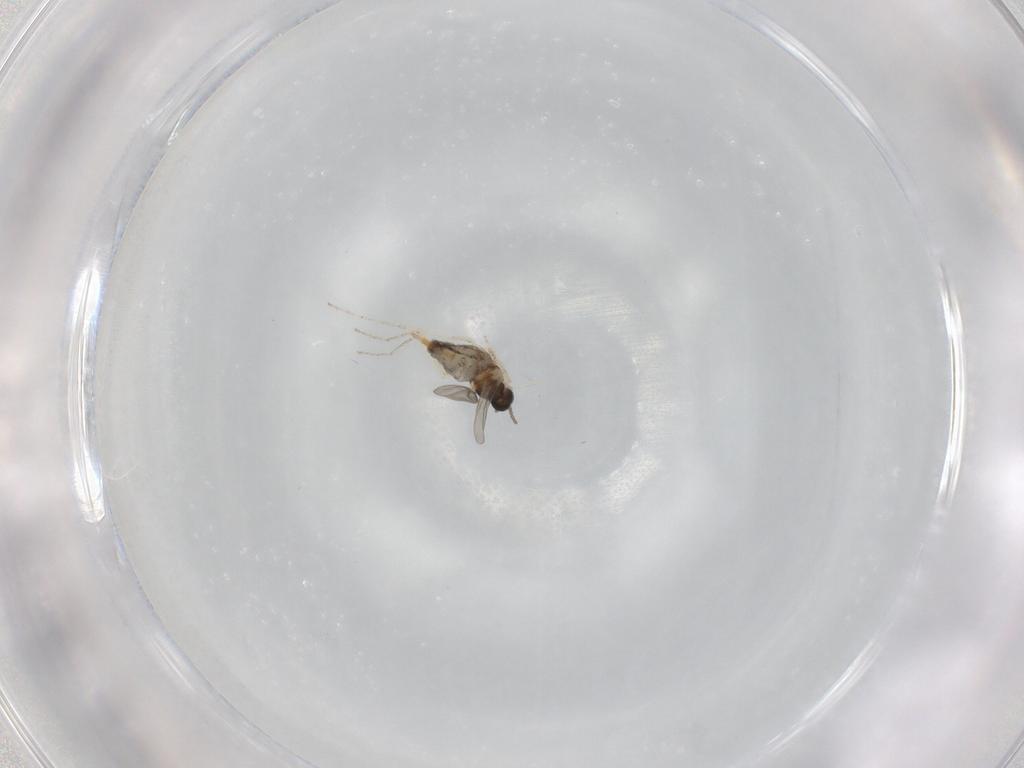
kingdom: Animalia
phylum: Arthropoda
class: Insecta
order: Diptera
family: Cecidomyiidae
